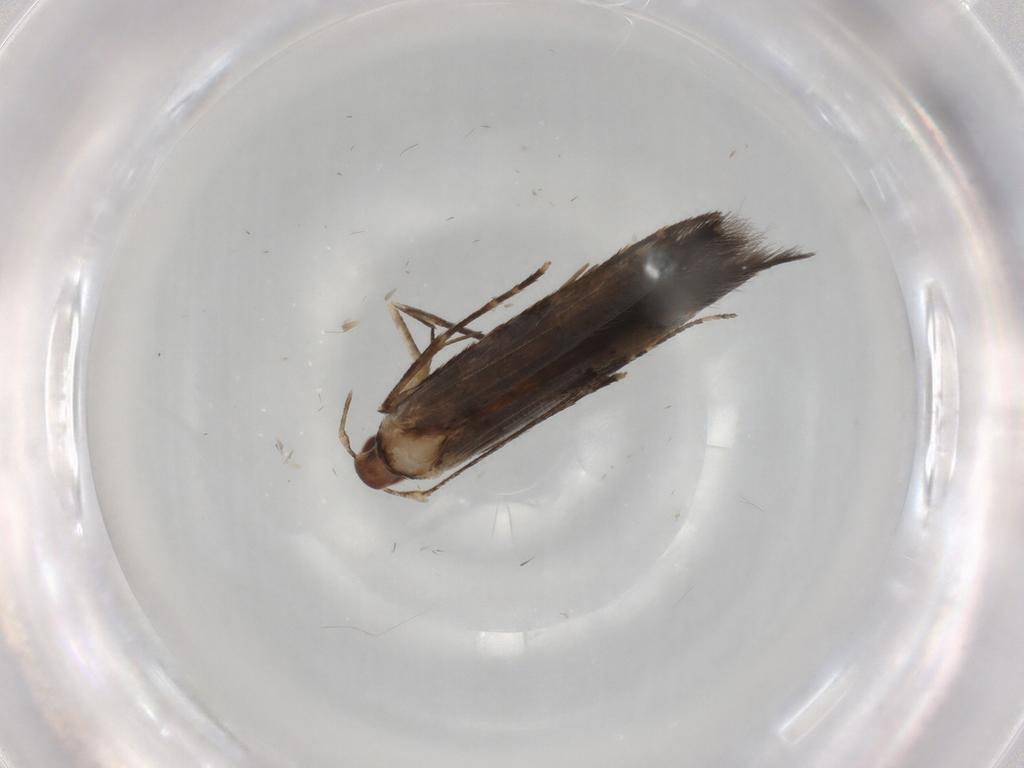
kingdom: Animalia
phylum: Arthropoda
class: Insecta
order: Lepidoptera
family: Cosmopterigidae
